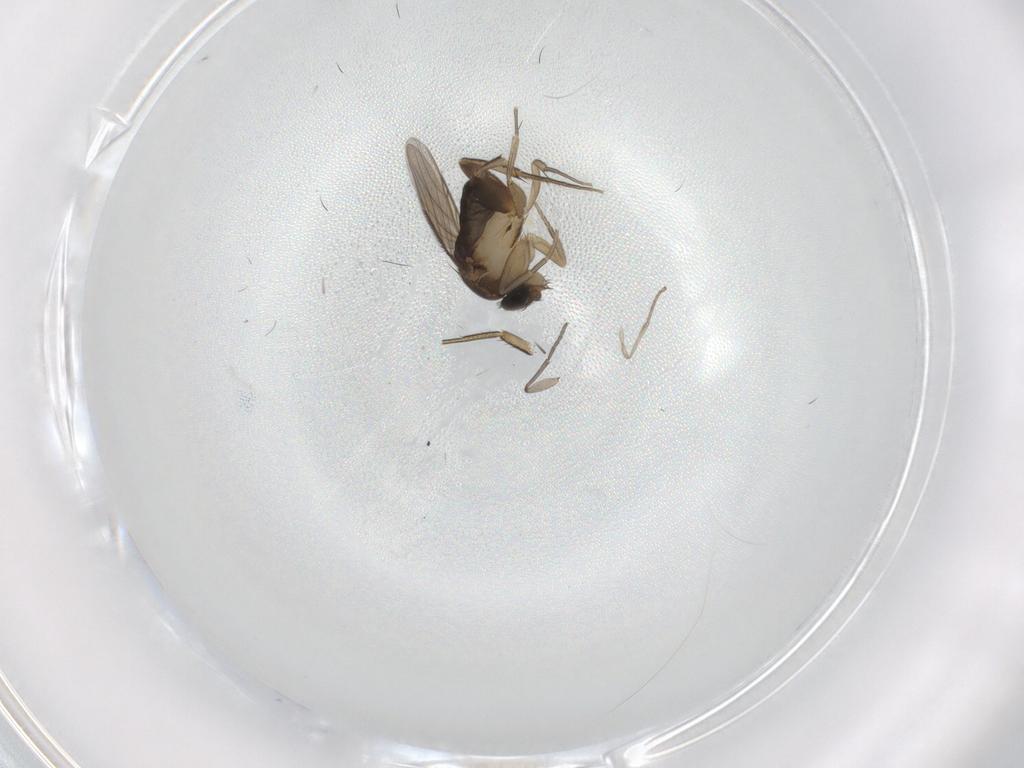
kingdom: Animalia
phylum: Arthropoda
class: Insecta
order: Diptera
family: Phoridae
